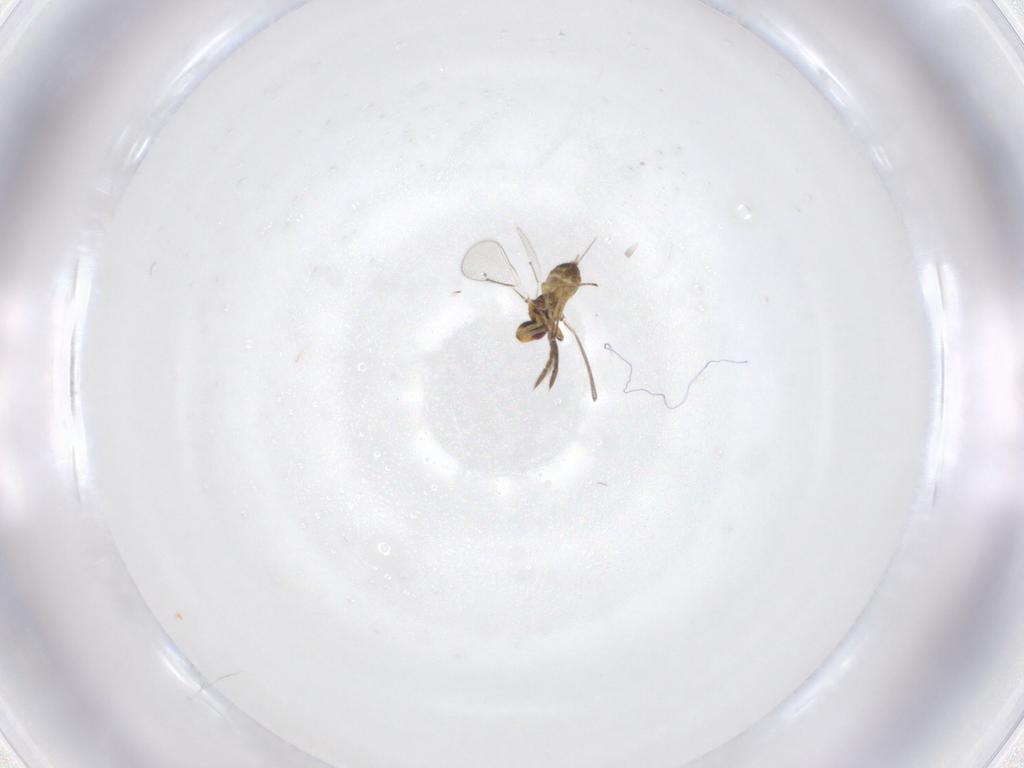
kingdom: Animalia
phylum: Arthropoda
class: Insecta
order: Hymenoptera
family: Eulophidae
